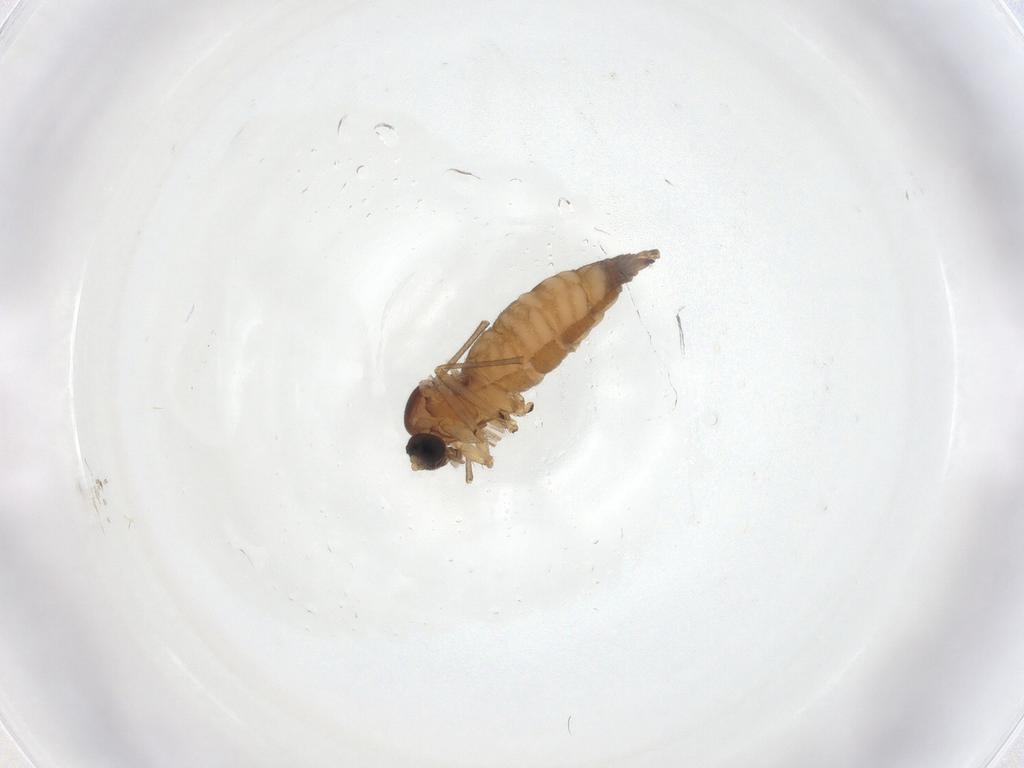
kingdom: Animalia
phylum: Arthropoda
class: Insecta
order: Diptera
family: Sciaridae
